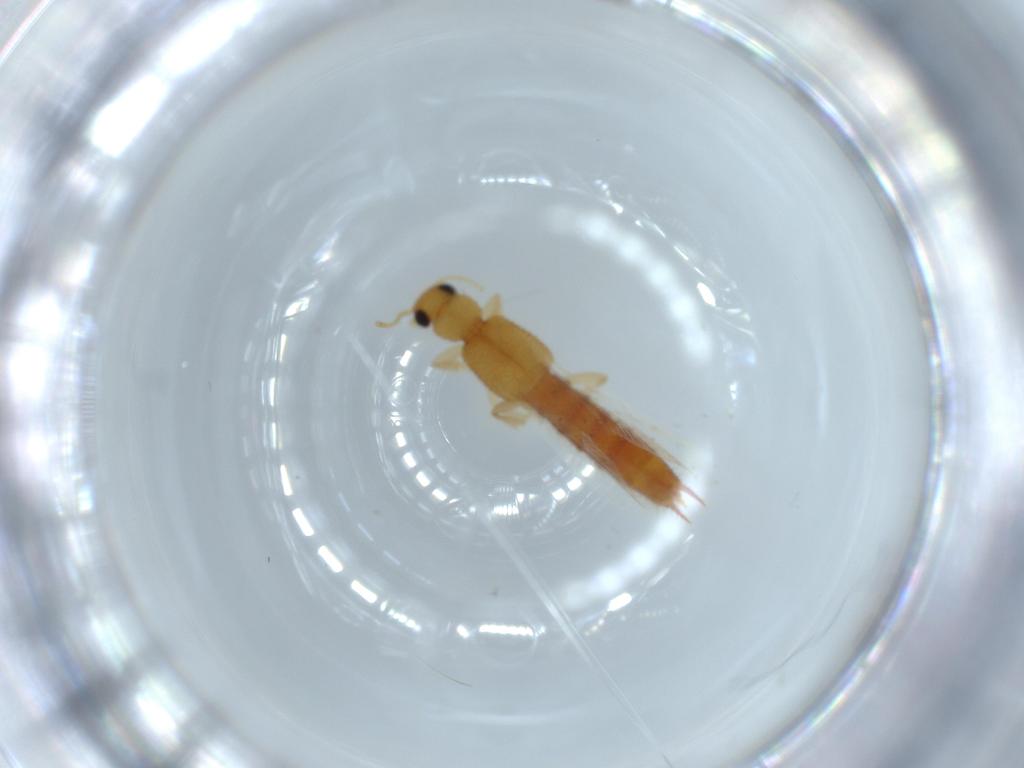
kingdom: Animalia
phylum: Arthropoda
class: Insecta
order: Coleoptera
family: Staphylinidae
